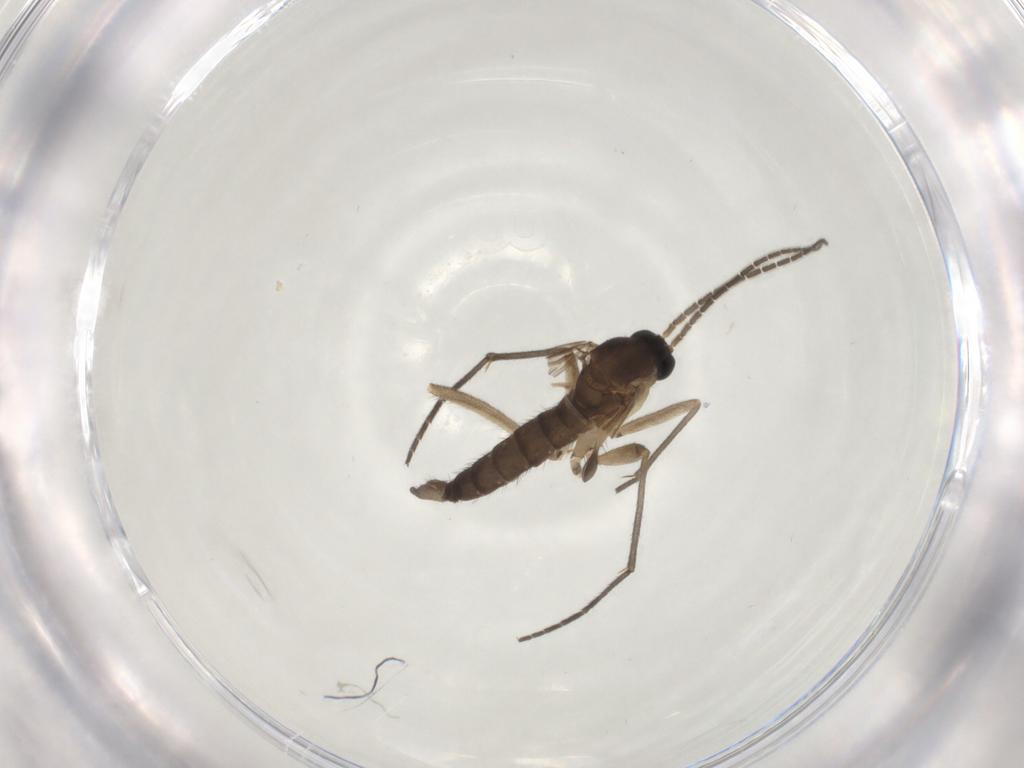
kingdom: Animalia
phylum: Arthropoda
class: Insecta
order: Diptera
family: Sciaridae
